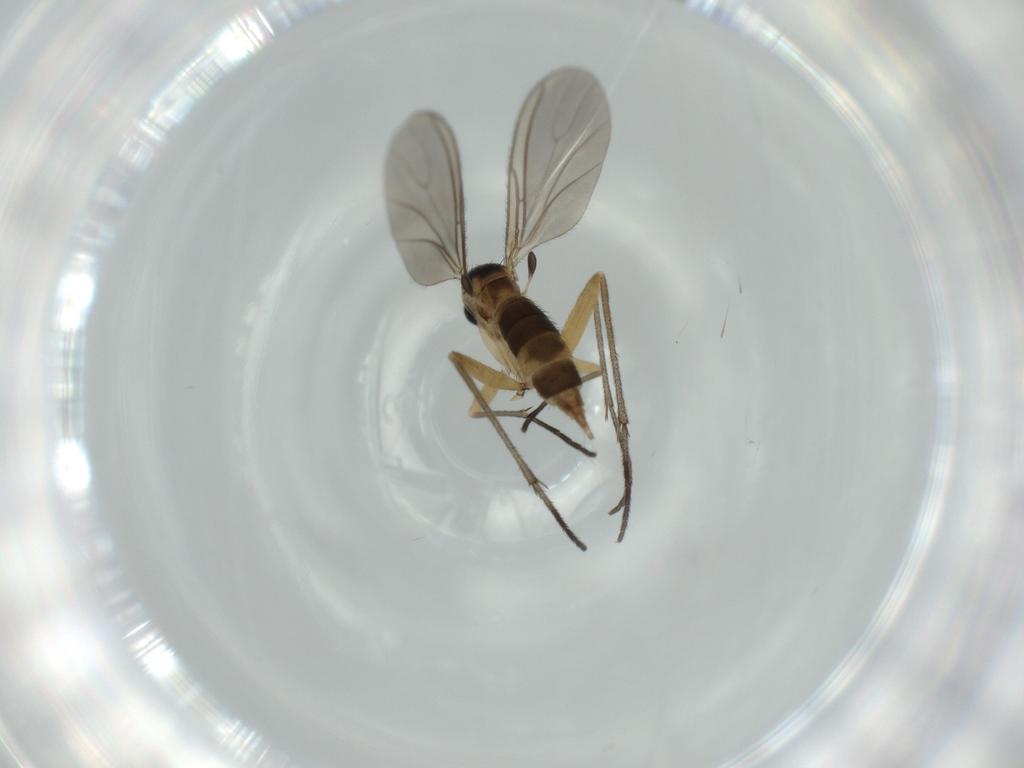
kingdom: Animalia
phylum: Arthropoda
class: Insecta
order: Diptera
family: Sciaridae
